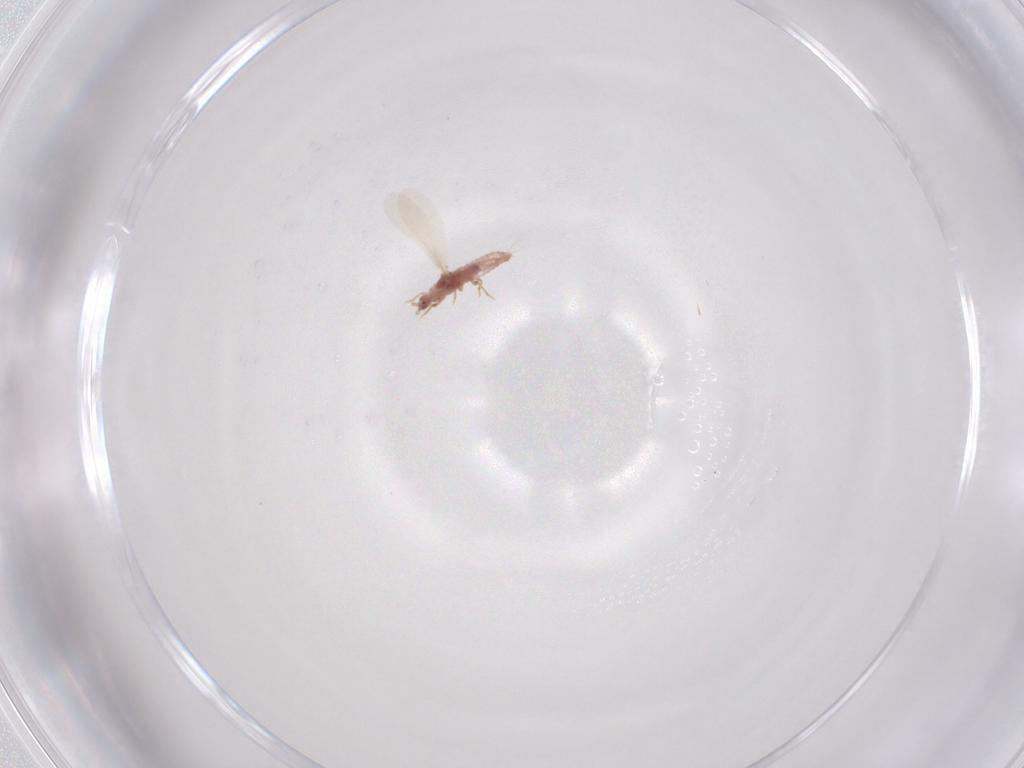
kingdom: Animalia
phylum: Arthropoda
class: Insecta
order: Hemiptera
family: Pseudococcidae
